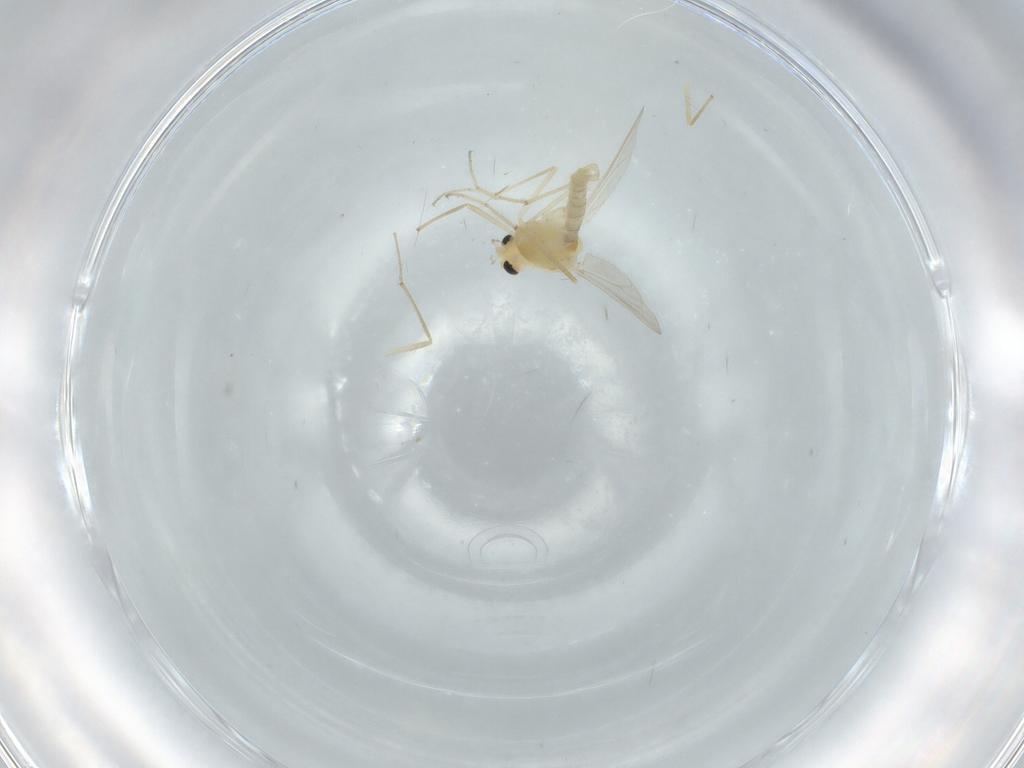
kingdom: Animalia
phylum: Arthropoda
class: Insecta
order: Diptera
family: Chironomidae
